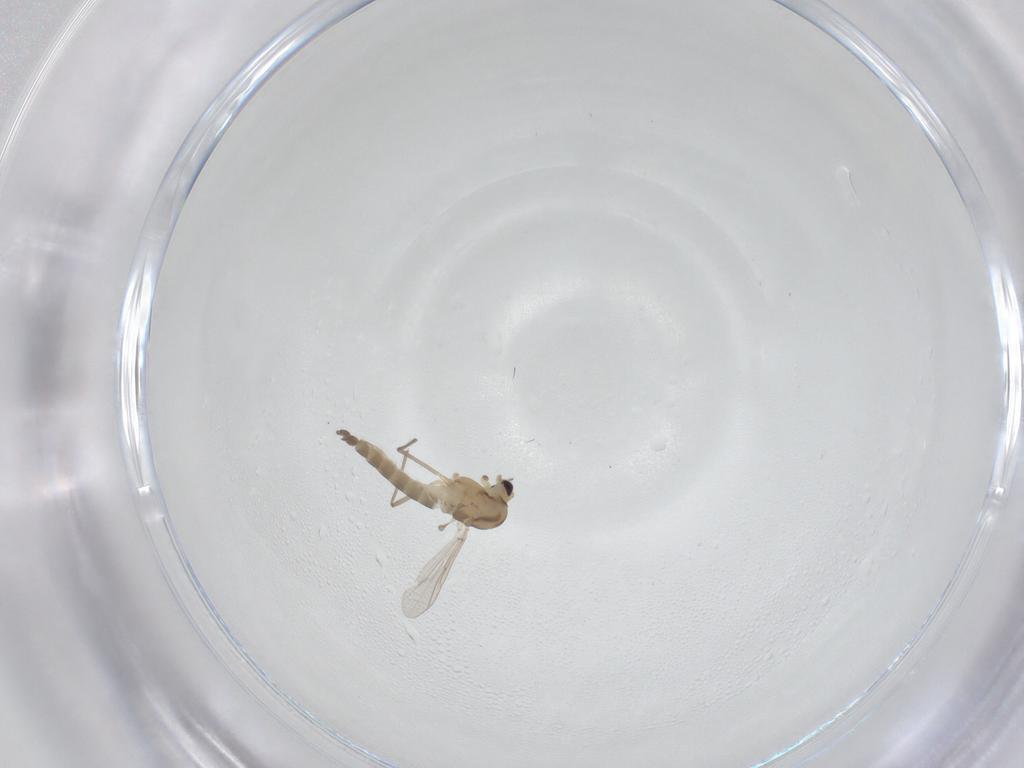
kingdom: Animalia
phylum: Arthropoda
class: Insecta
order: Diptera
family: Chironomidae
